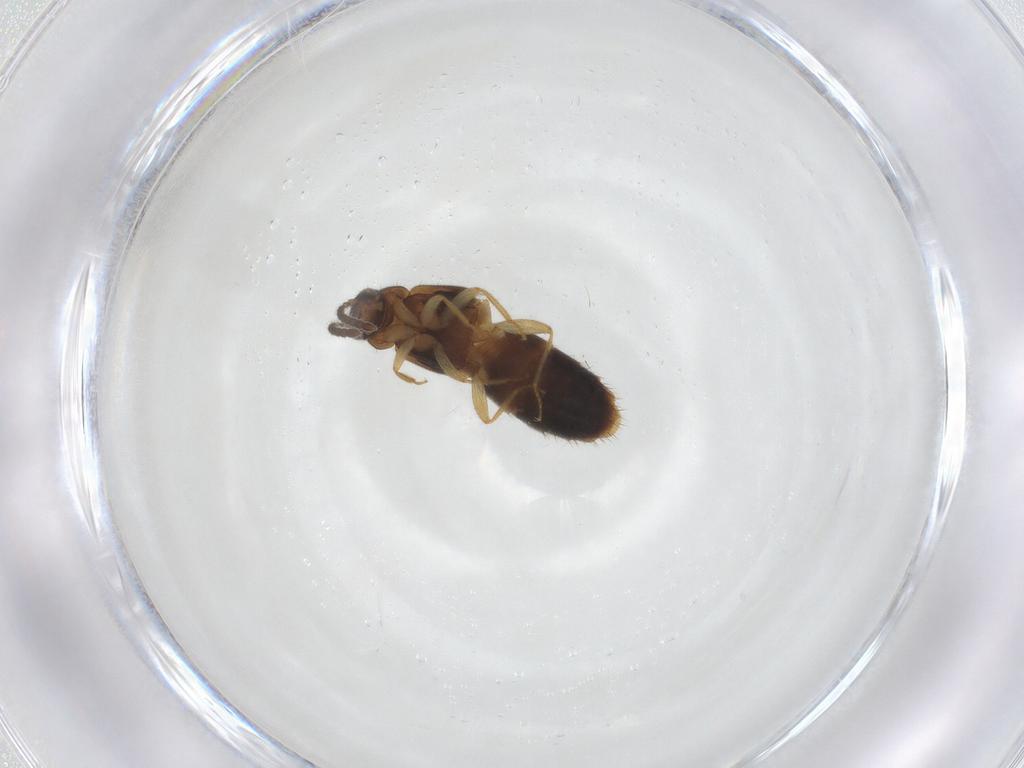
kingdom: Animalia
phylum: Arthropoda
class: Insecta
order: Coleoptera
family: Staphylinidae
